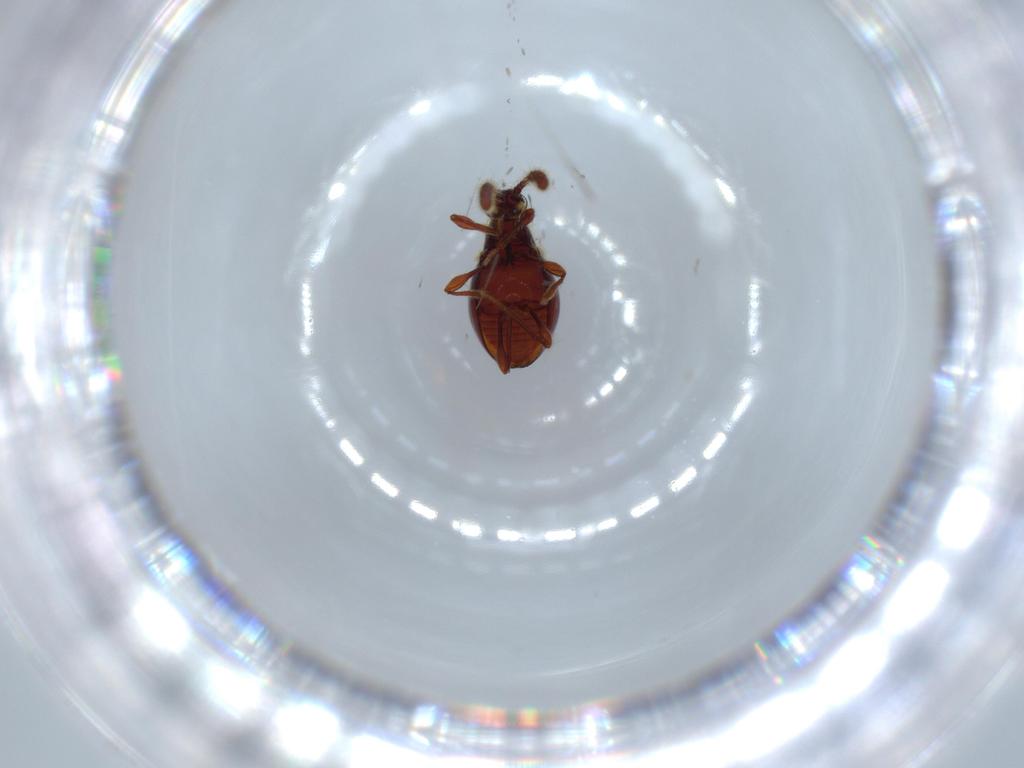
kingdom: Animalia
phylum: Arthropoda
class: Insecta
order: Coleoptera
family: Staphylinidae
